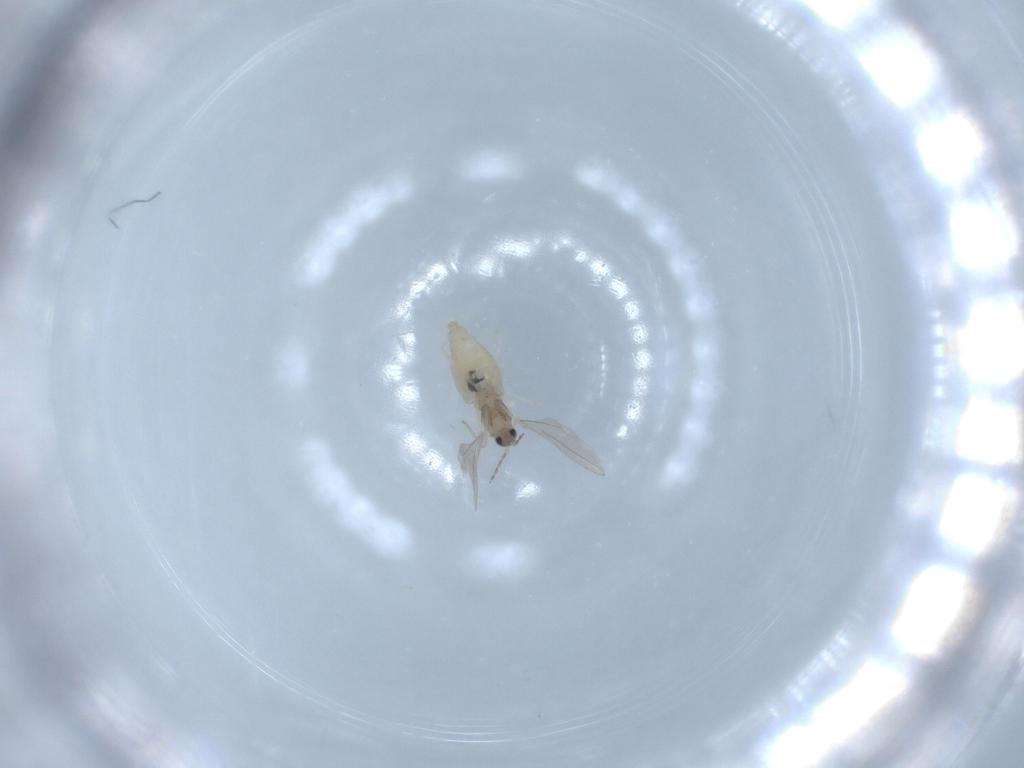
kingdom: Animalia
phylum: Arthropoda
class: Insecta
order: Diptera
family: Cecidomyiidae
